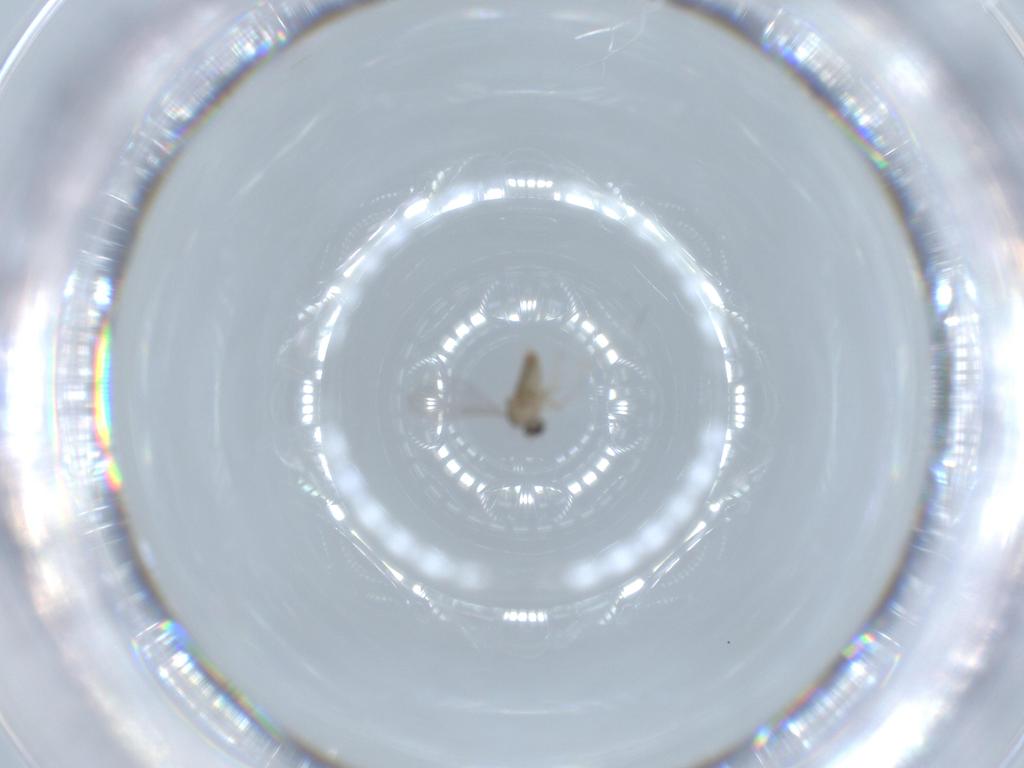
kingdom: Animalia
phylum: Arthropoda
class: Insecta
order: Diptera
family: Cecidomyiidae
